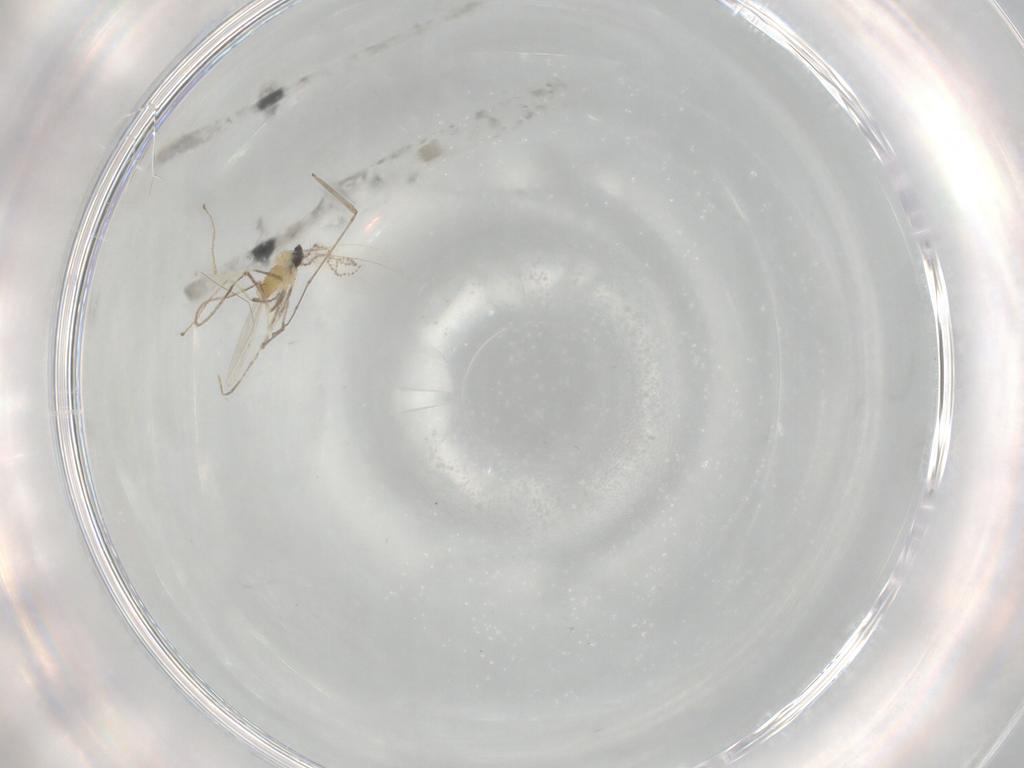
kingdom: Animalia
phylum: Arthropoda
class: Insecta
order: Diptera
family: Cecidomyiidae
